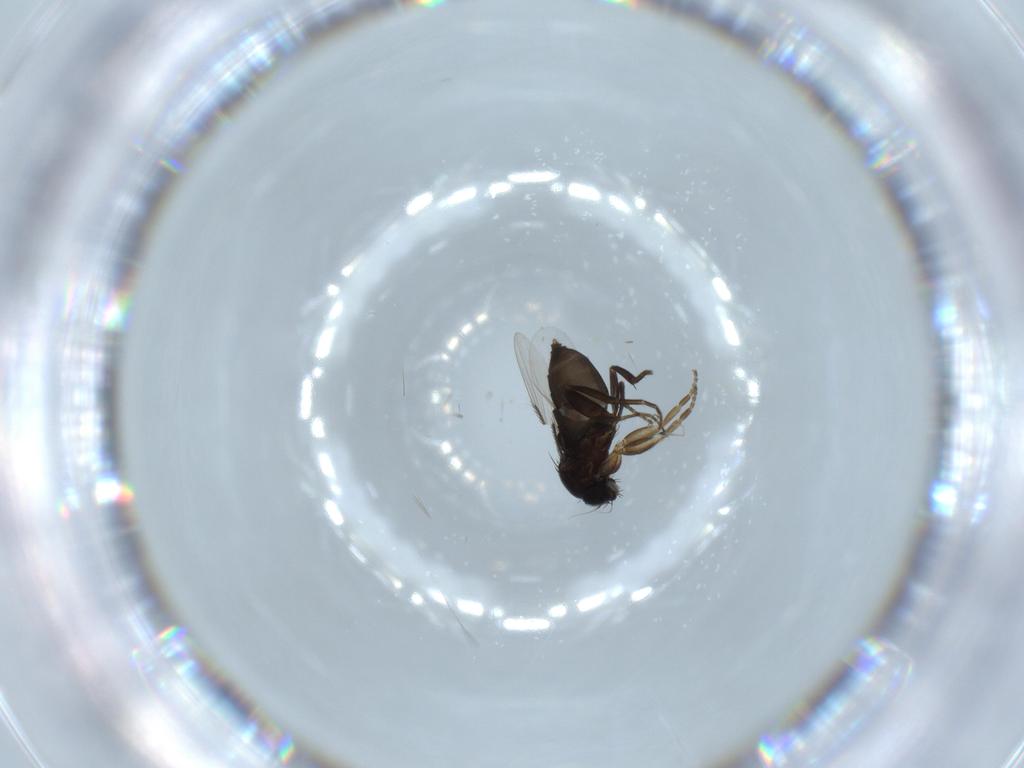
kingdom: Animalia
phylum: Arthropoda
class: Insecta
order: Diptera
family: Phoridae
